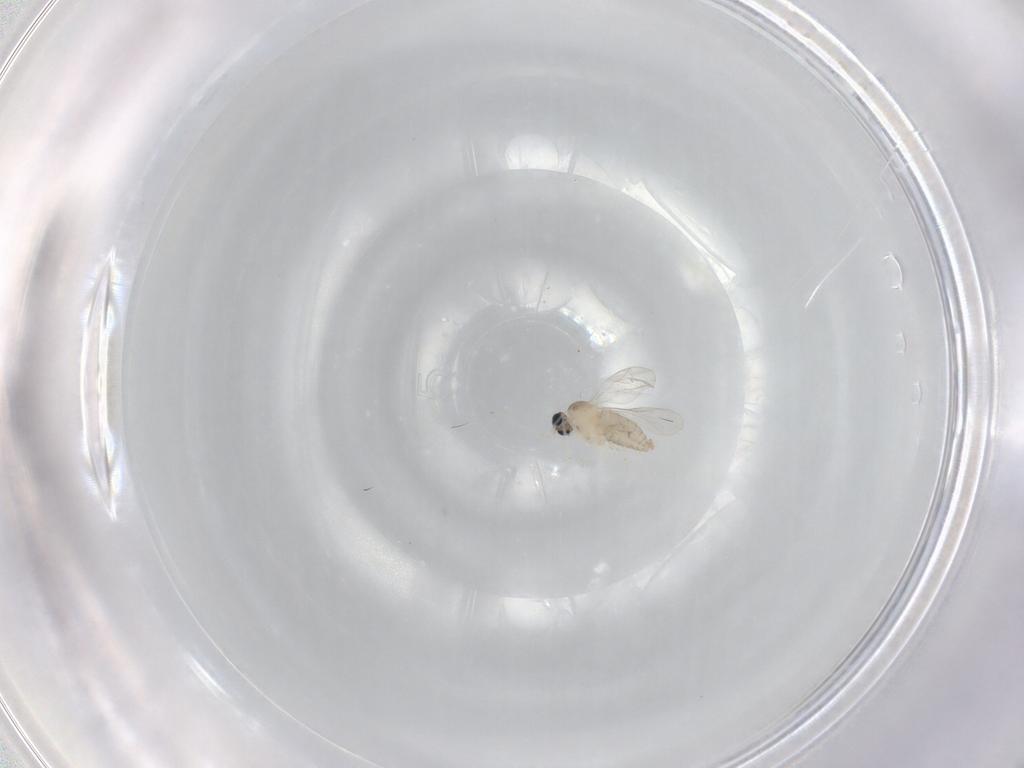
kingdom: Animalia
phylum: Arthropoda
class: Insecta
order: Diptera
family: Cecidomyiidae
